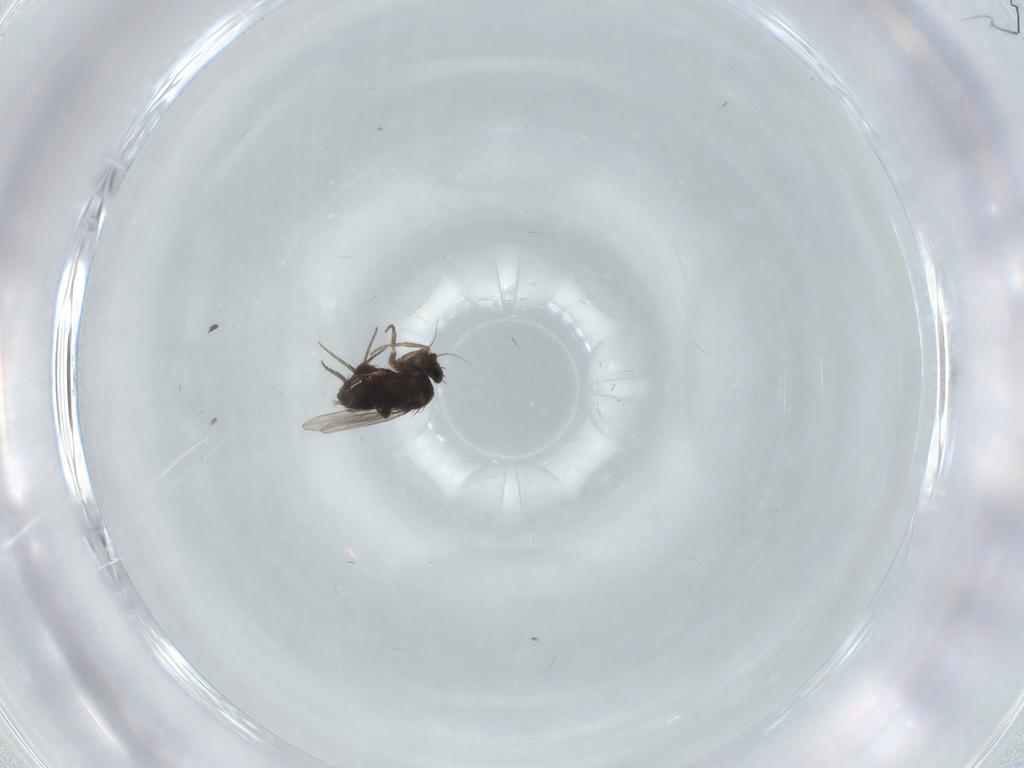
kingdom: Animalia
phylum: Arthropoda
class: Insecta
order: Diptera
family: Phoridae
